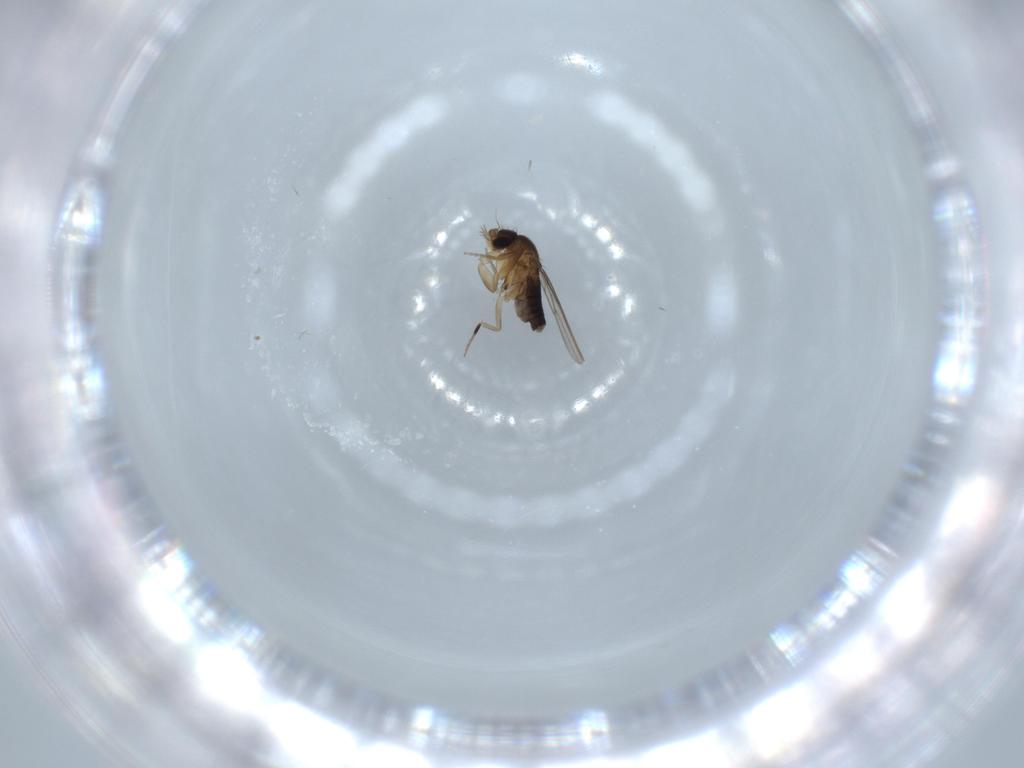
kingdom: Animalia
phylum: Arthropoda
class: Insecta
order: Diptera
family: Phoridae
